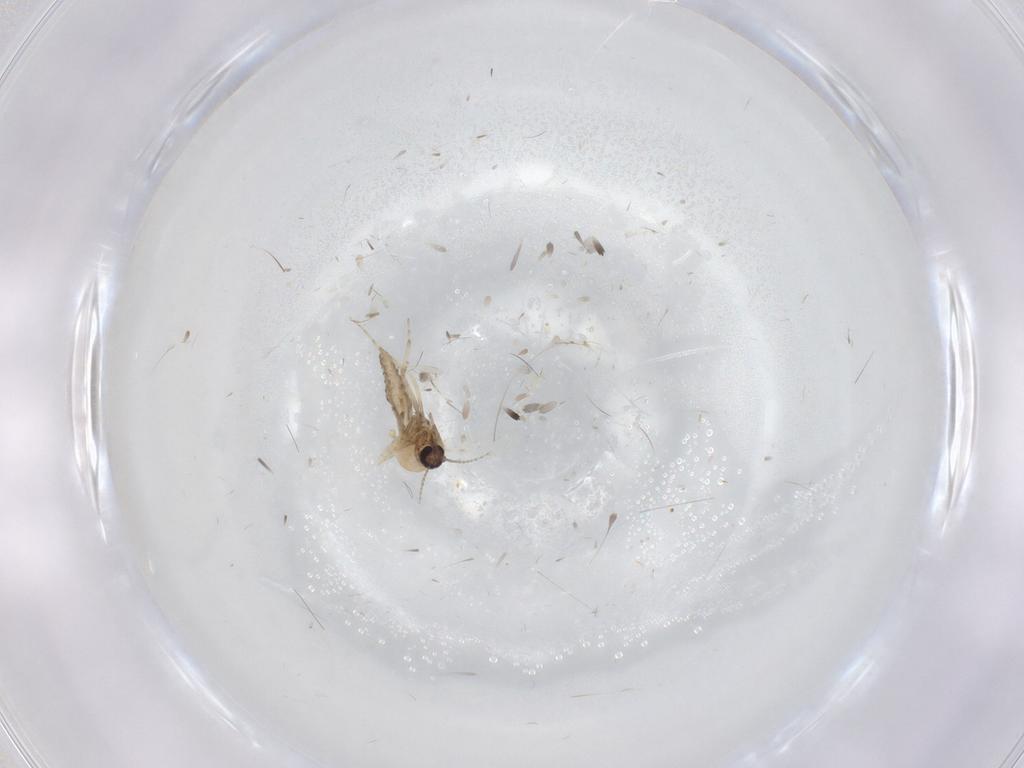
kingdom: Animalia
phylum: Arthropoda
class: Insecta
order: Diptera
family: Ceratopogonidae
